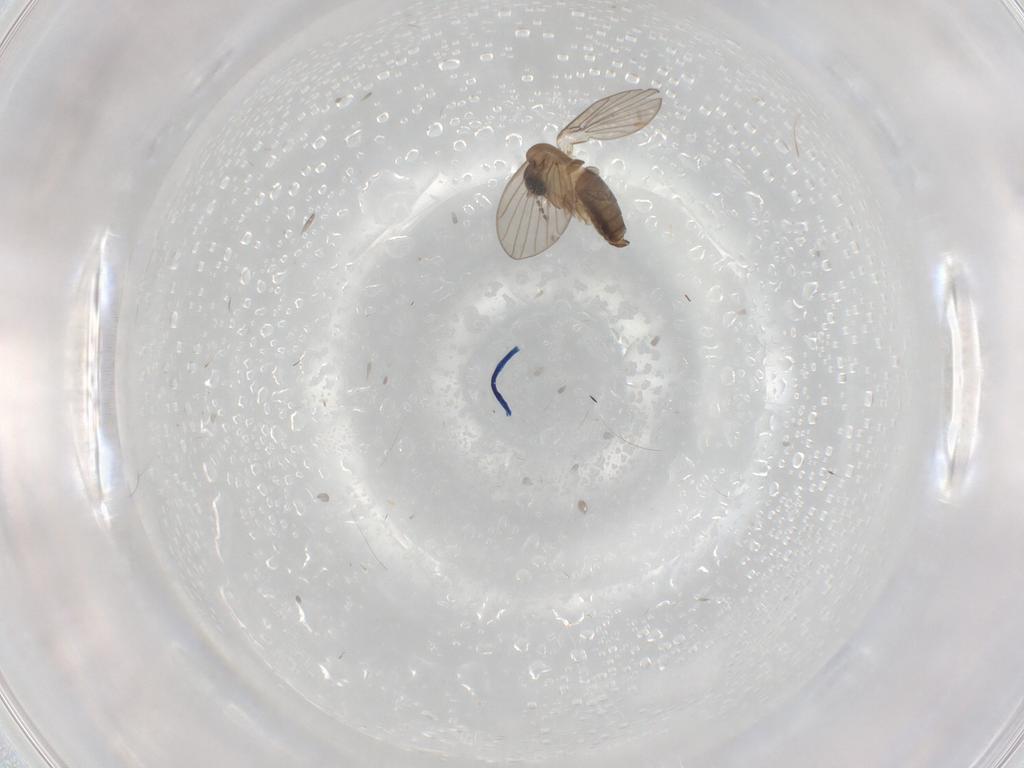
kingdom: Animalia
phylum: Arthropoda
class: Insecta
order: Diptera
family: Psychodidae
